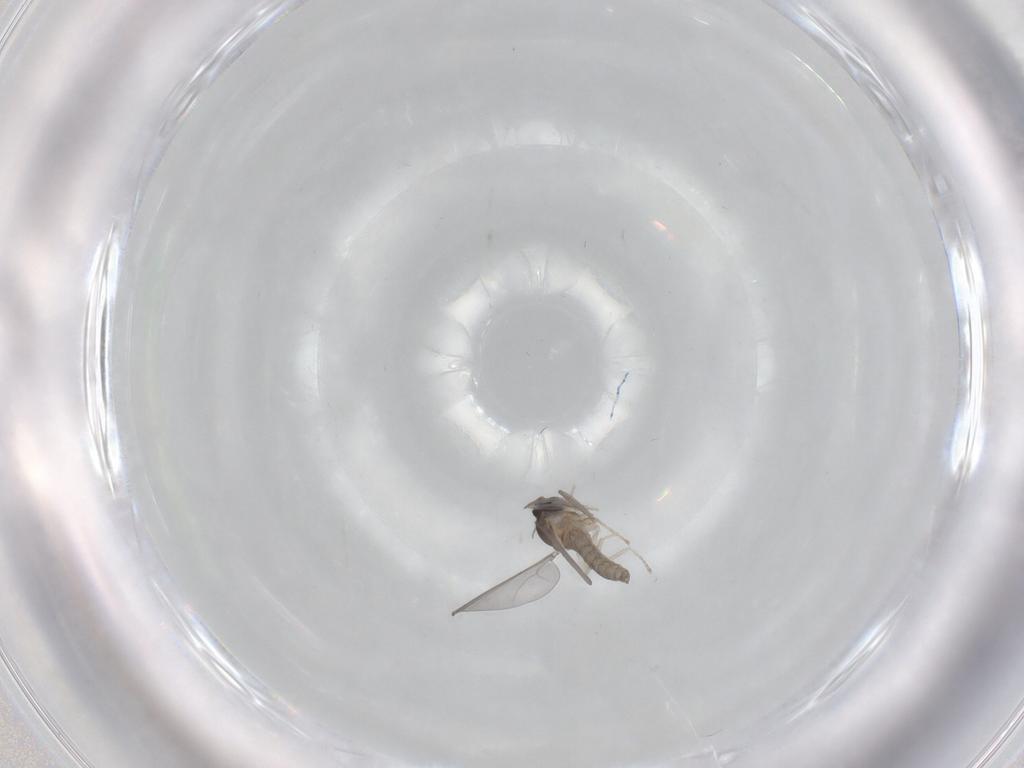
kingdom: Animalia
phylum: Arthropoda
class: Insecta
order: Diptera
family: Cecidomyiidae
